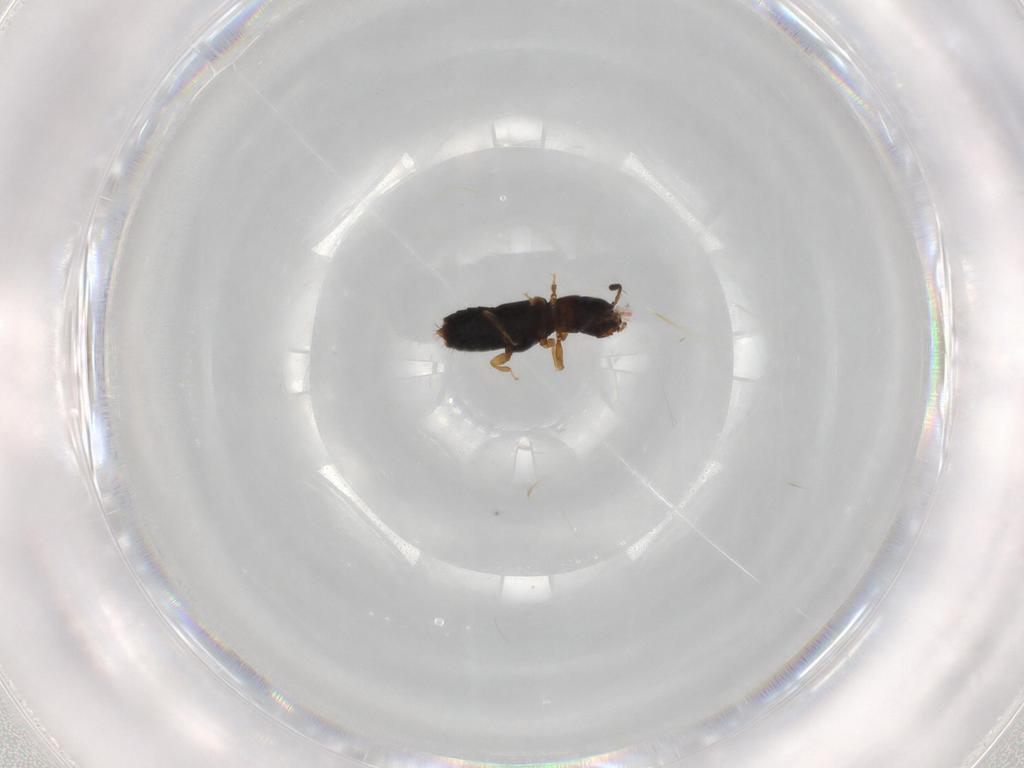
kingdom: Animalia
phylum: Arthropoda
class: Insecta
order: Coleoptera
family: Staphylinidae
